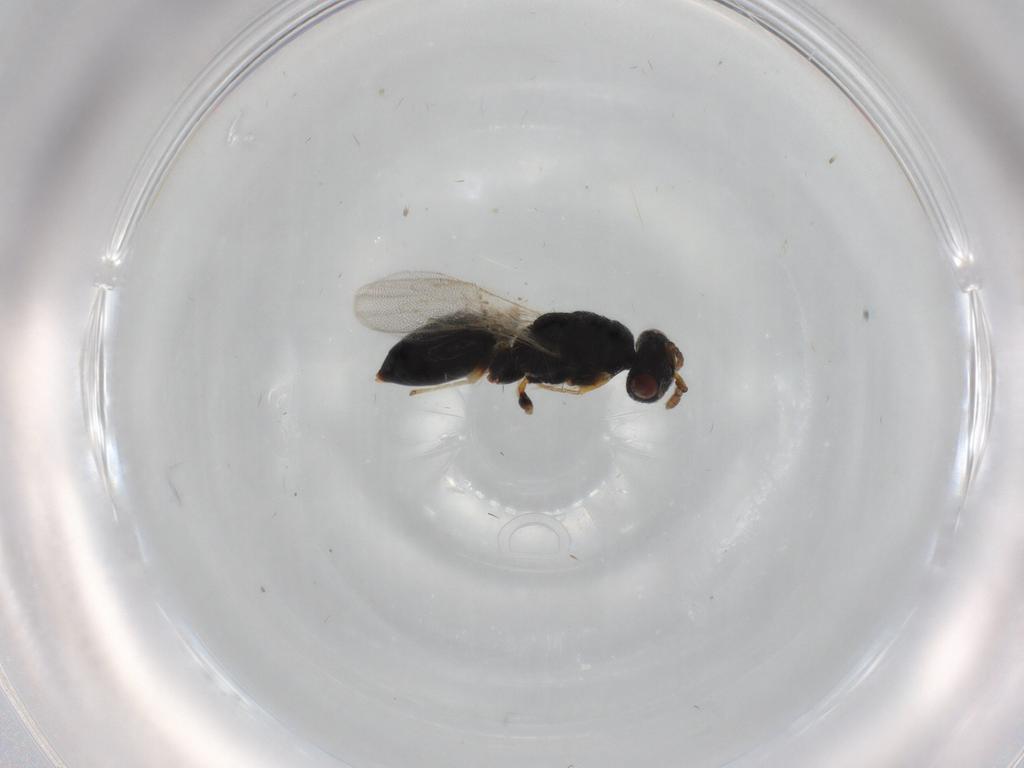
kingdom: Animalia
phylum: Arthropoda
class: Insecta
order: Hymenoptera
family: Eurytomidae
